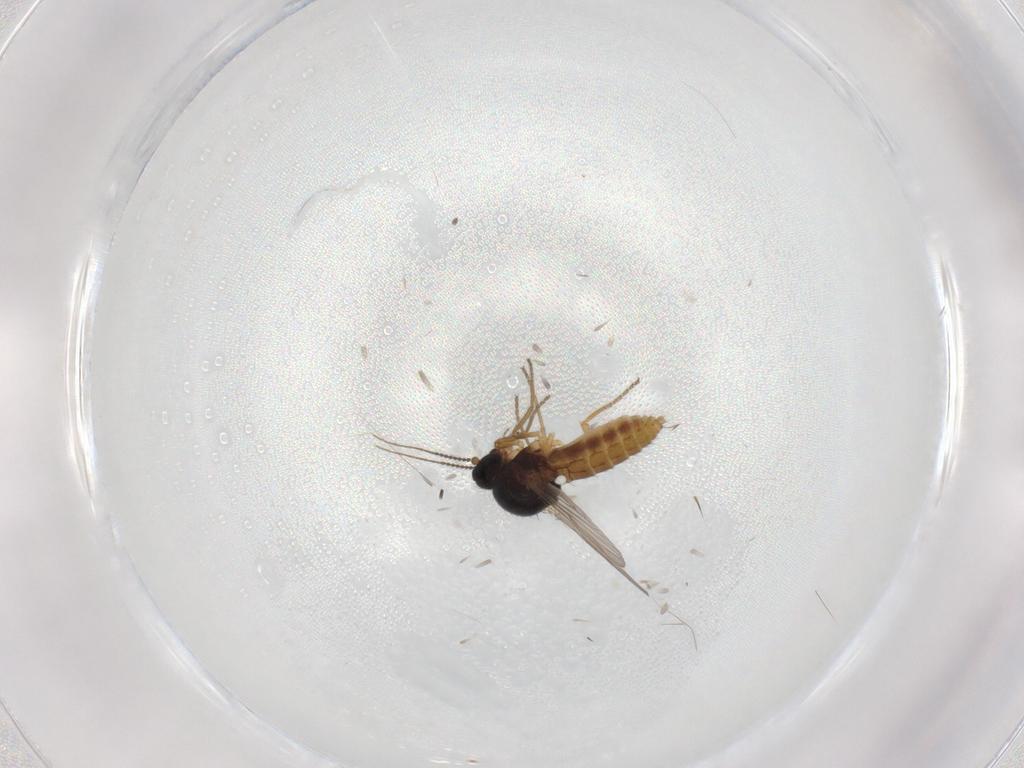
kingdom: Animalia
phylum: Arthropoda
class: Insecta
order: Diptera
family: Ceratopogonidae
